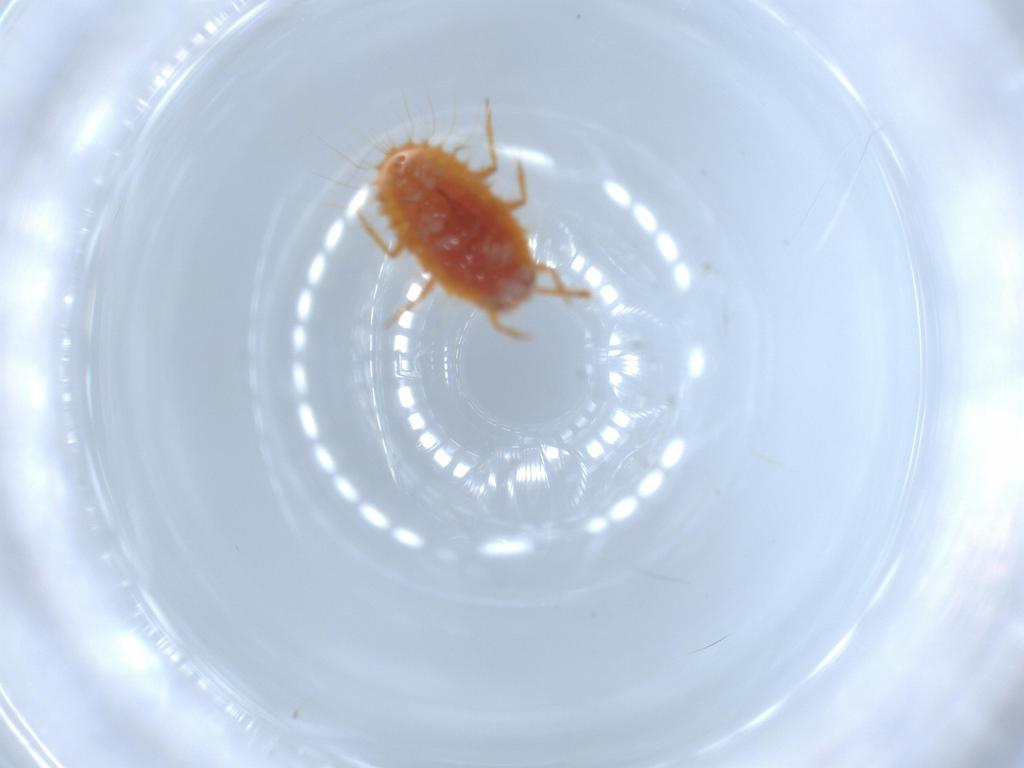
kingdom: Animalia
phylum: Arthropoda
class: Insecta
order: Hemiptera
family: Coccoidea_incertae_sedis
